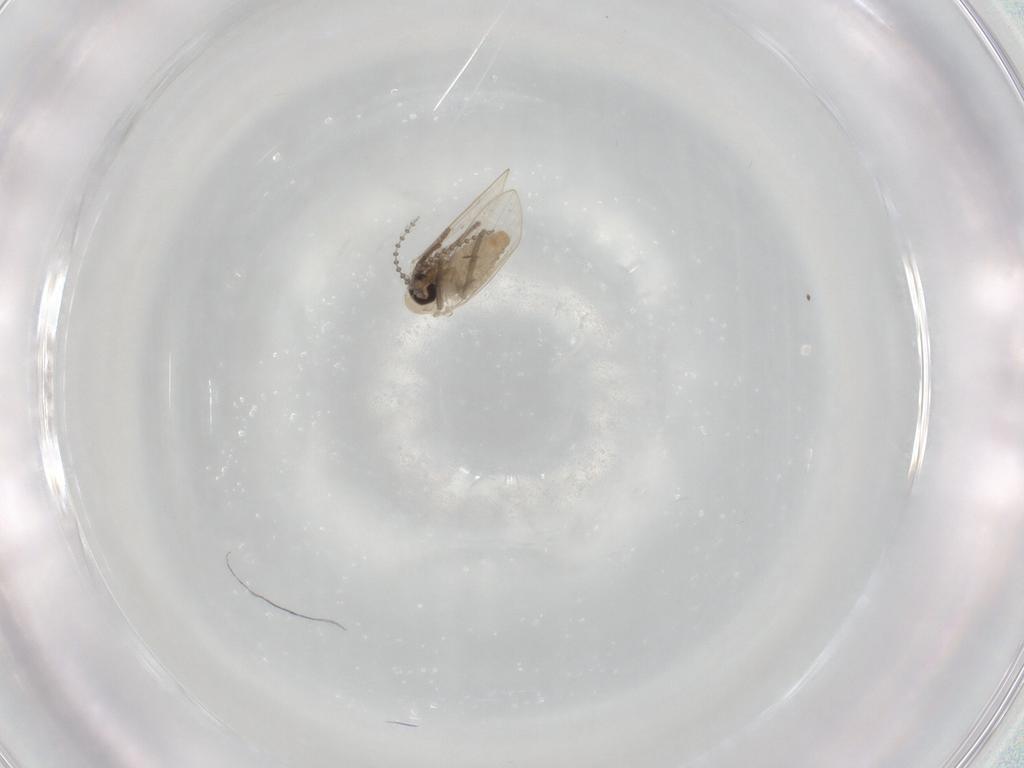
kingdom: Animalia
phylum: Arthropoda
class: Insecta
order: Diptera
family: Psychodidae
